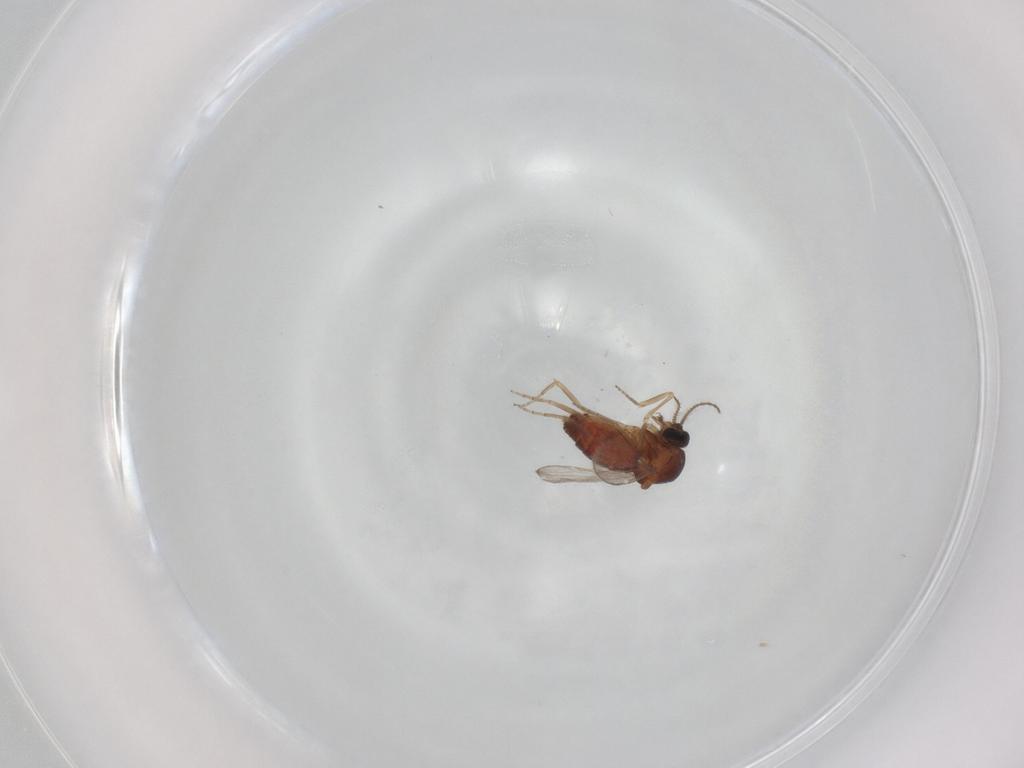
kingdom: Animalia
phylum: Arthropoda
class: Insecta
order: Diptera
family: Ceratopogonidae
